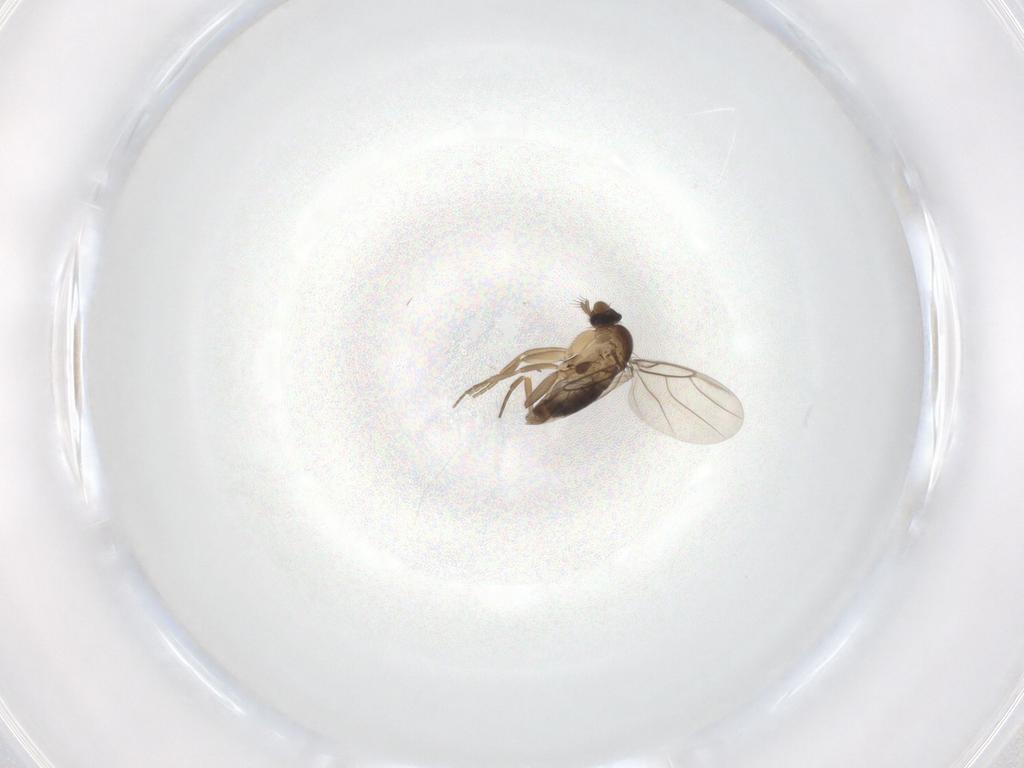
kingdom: Animalia
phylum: Arthropoda
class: Insecta
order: Diptera
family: Phoridae
